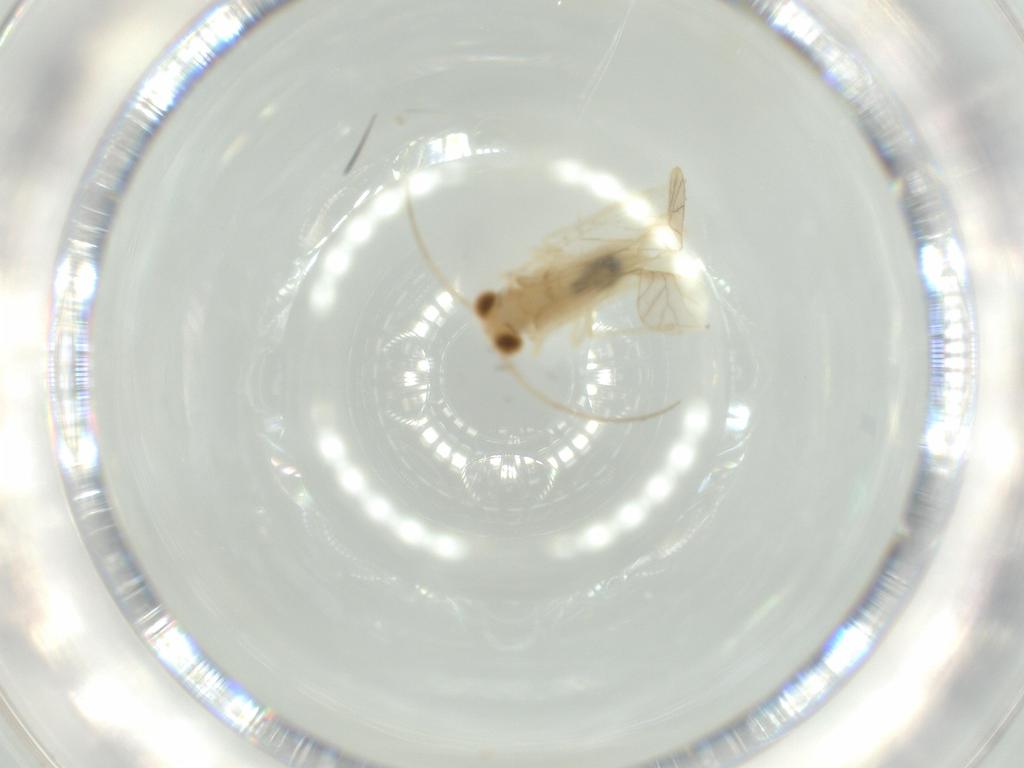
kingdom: Animalia
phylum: Arthropoda
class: Insecta
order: Psocodea
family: Caeciliusidae
